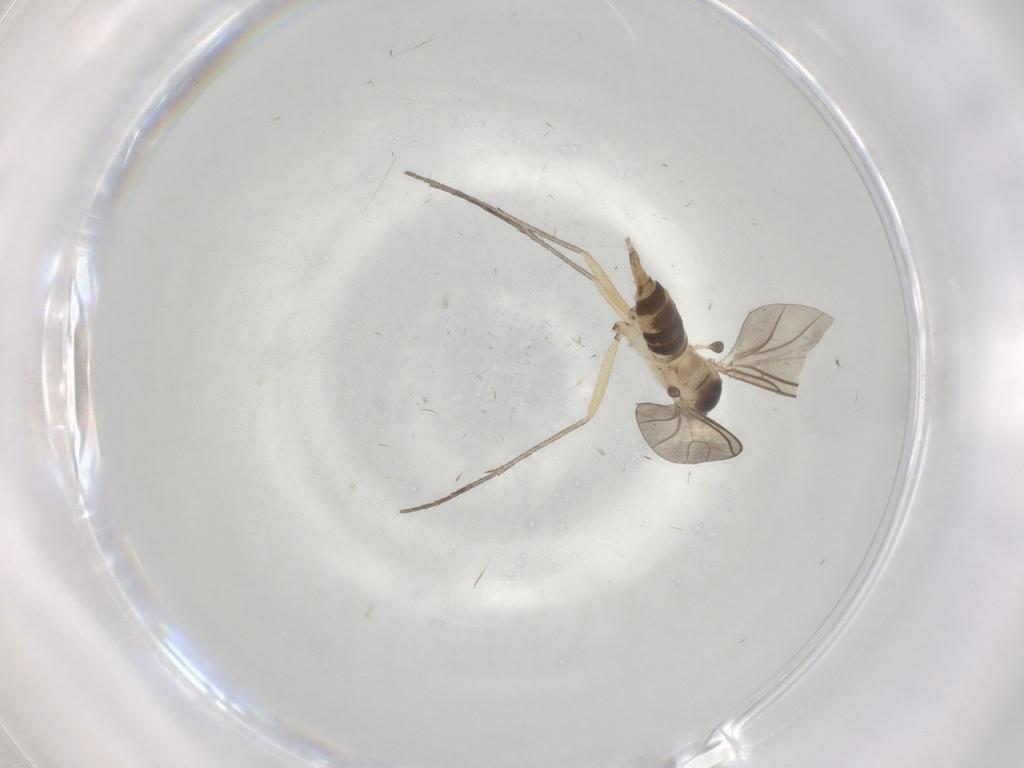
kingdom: Animalia
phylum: Arthropoda
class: Insecta
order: Diptera
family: Sciaridae
